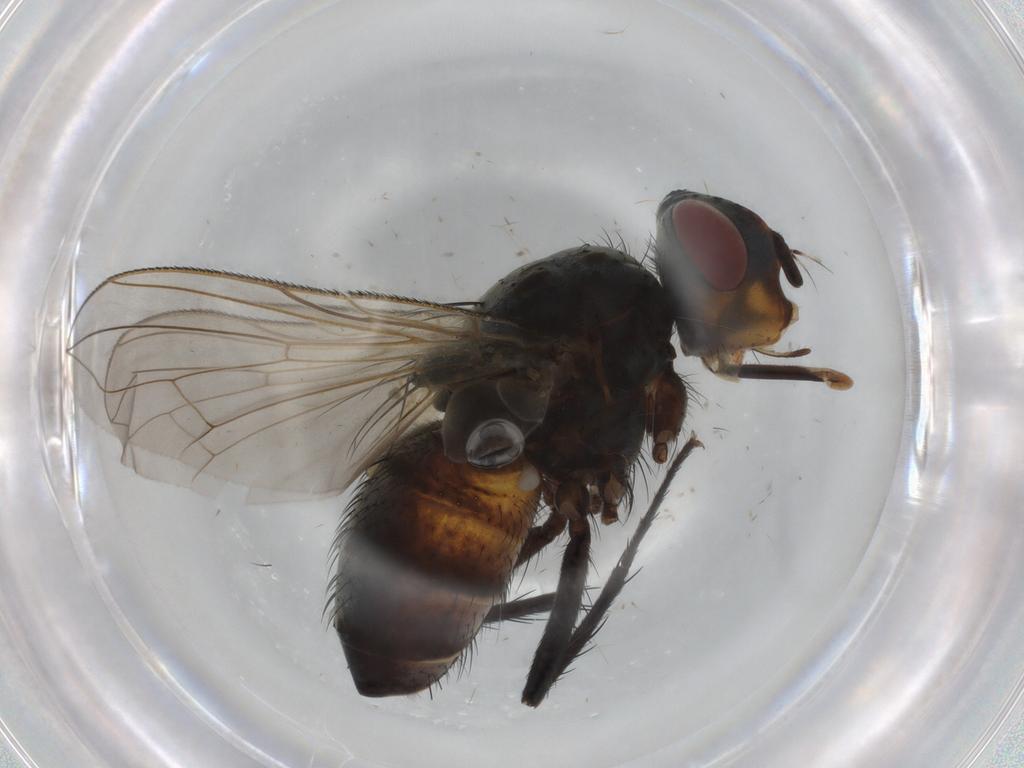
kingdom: Animalia
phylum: Arthropoda
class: Insecta
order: Diptera
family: Tachinidae
